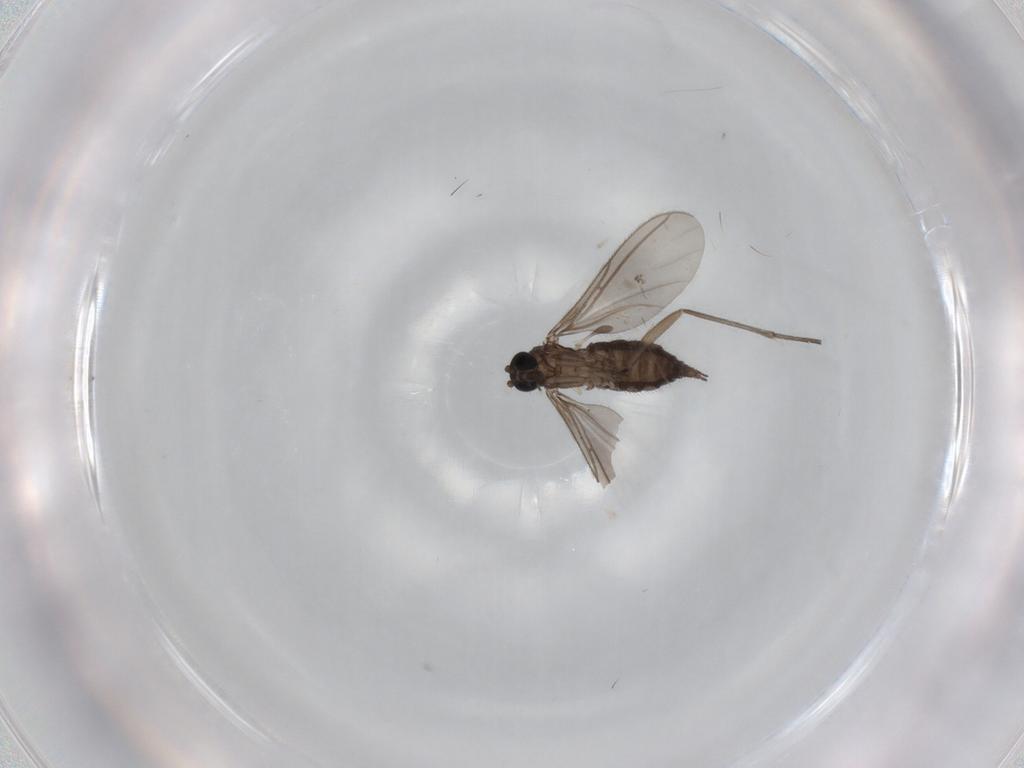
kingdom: Animalia
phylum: Arthropoda
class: Insecta
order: Diptera
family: Sciaridae
